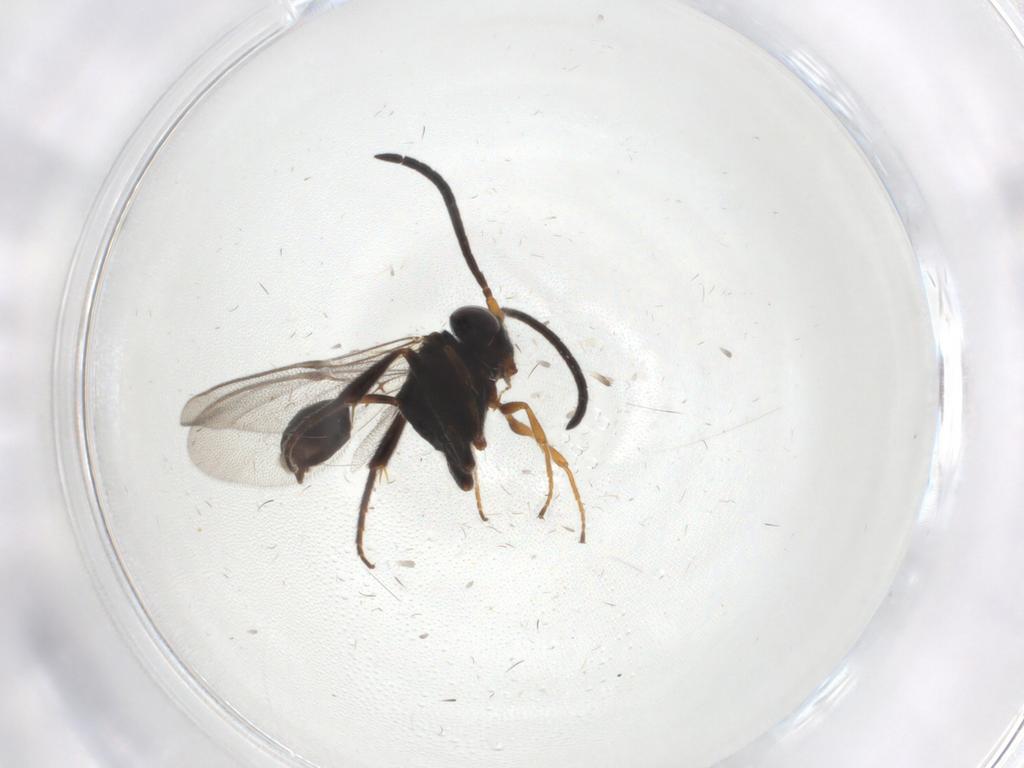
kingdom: Animalia
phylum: Arthropoda
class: Insecta
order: Hymenoptera
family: Evaniidae
